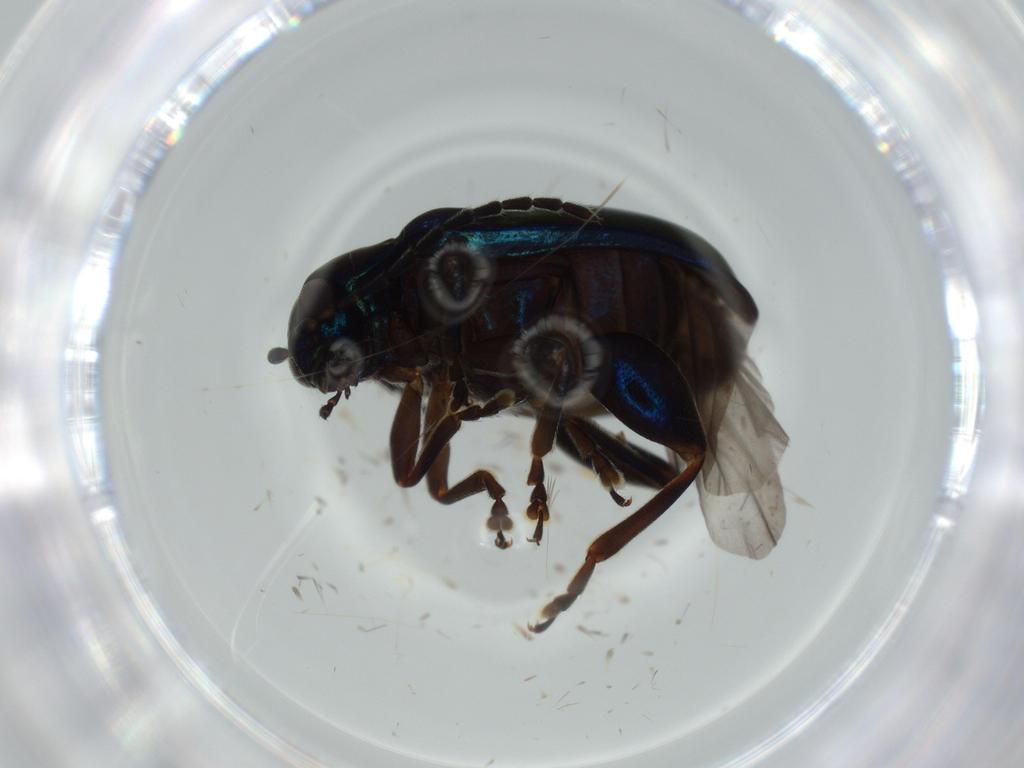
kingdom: Animalia
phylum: Arthropoda
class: Insecta
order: Coleoptera
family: Chrysomelidae
